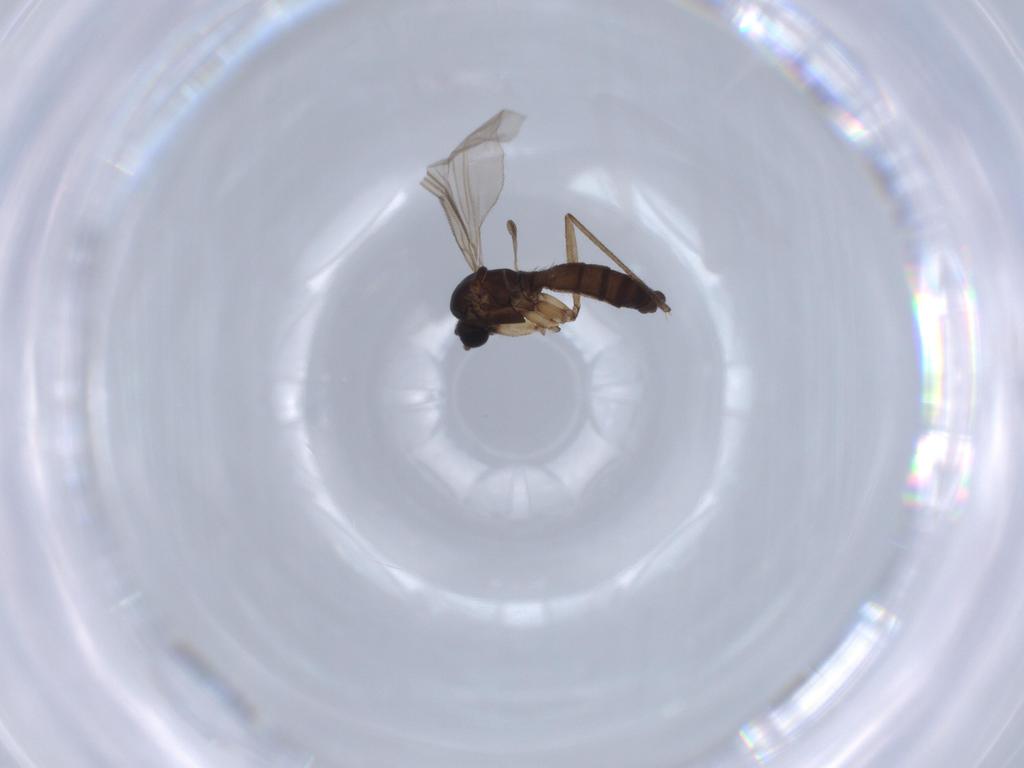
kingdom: Animalia
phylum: Arthropoda
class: Insecta
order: Diptera
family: Sciaridae
